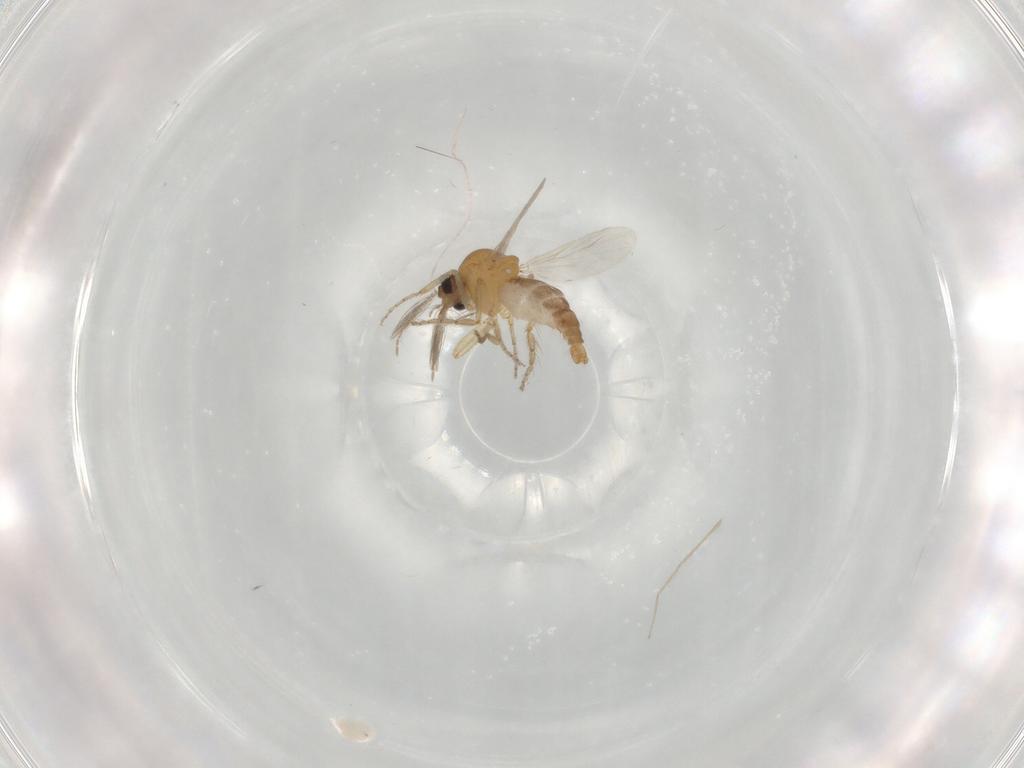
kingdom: Animalia
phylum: Arthropoda
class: Insecta
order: Diptera
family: Ceratopogonidae
